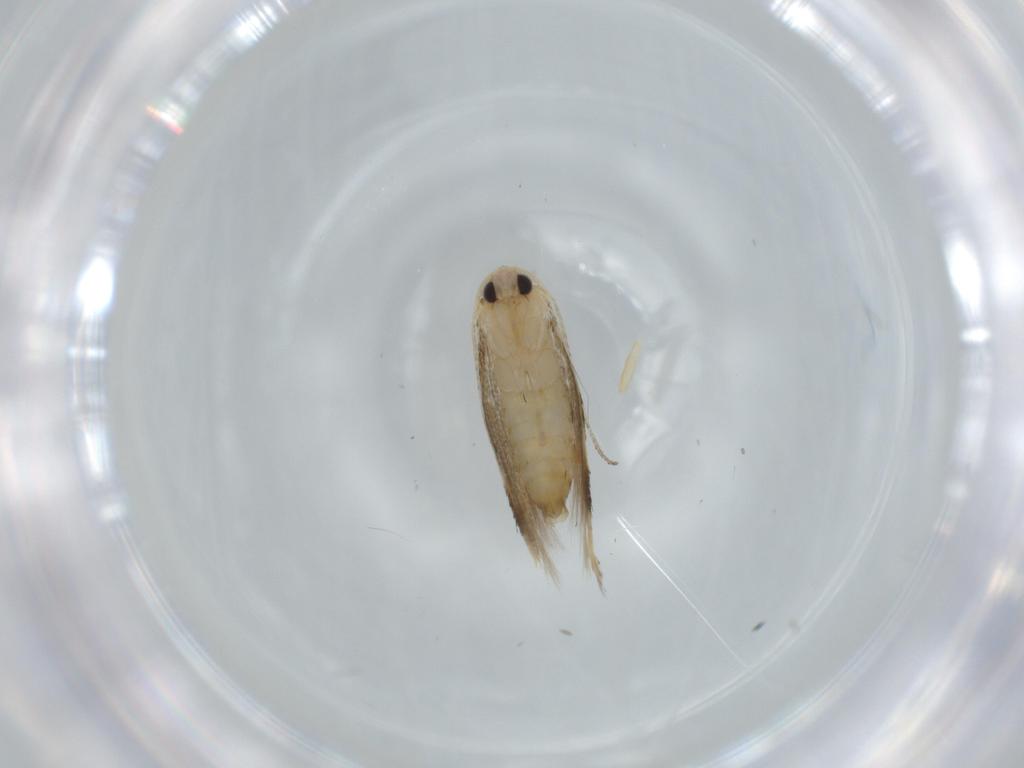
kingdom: Animalia
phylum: Arthropoda
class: Insecta
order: Lepidoptera
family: Bucculatricidae
